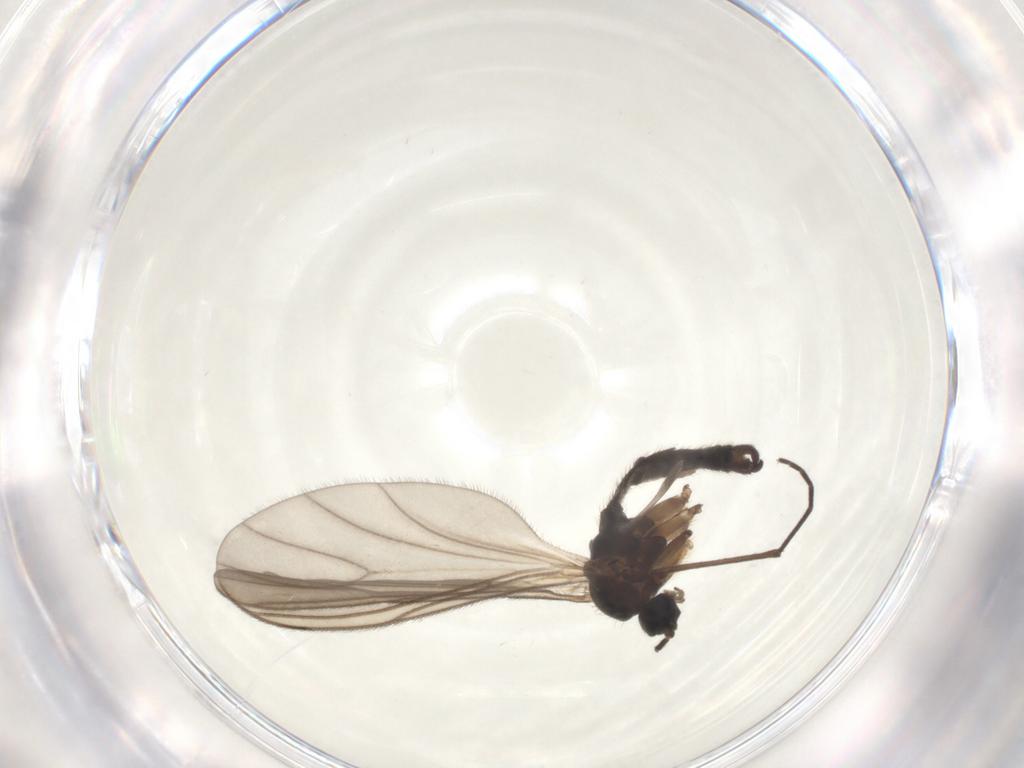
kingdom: Animalia
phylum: Arthropoda
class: Insecta
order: Diptera
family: Sciaridae
